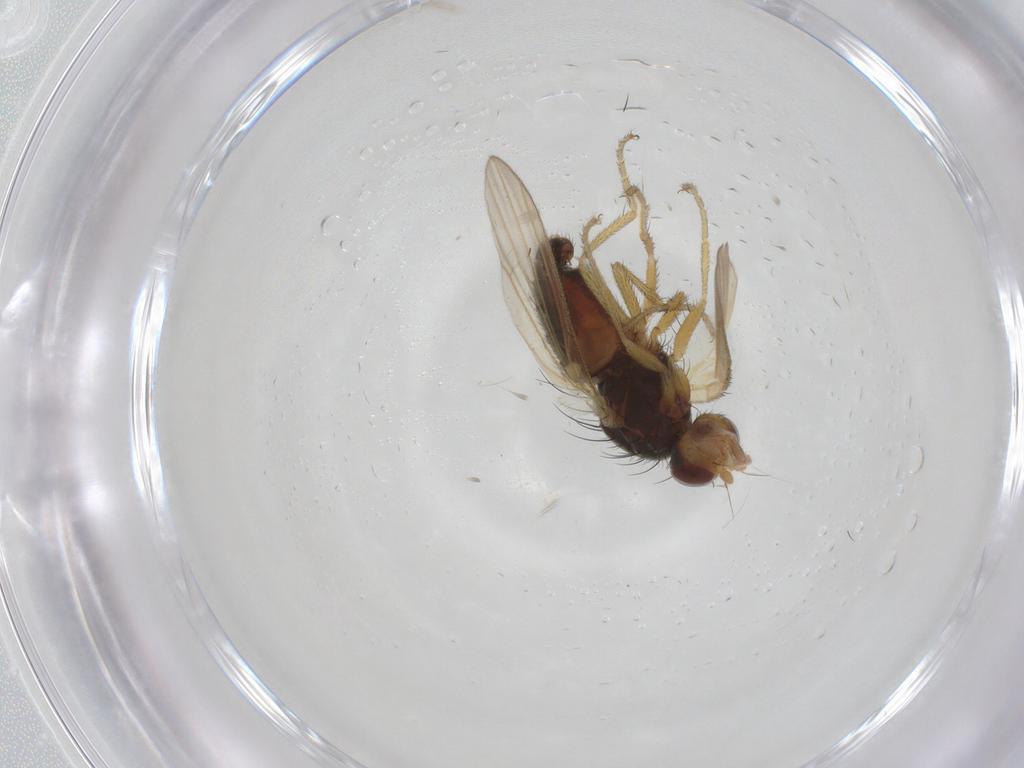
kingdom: Animalia
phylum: Arthropoda
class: Insecta
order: Diptera
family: Heleomyzidae
